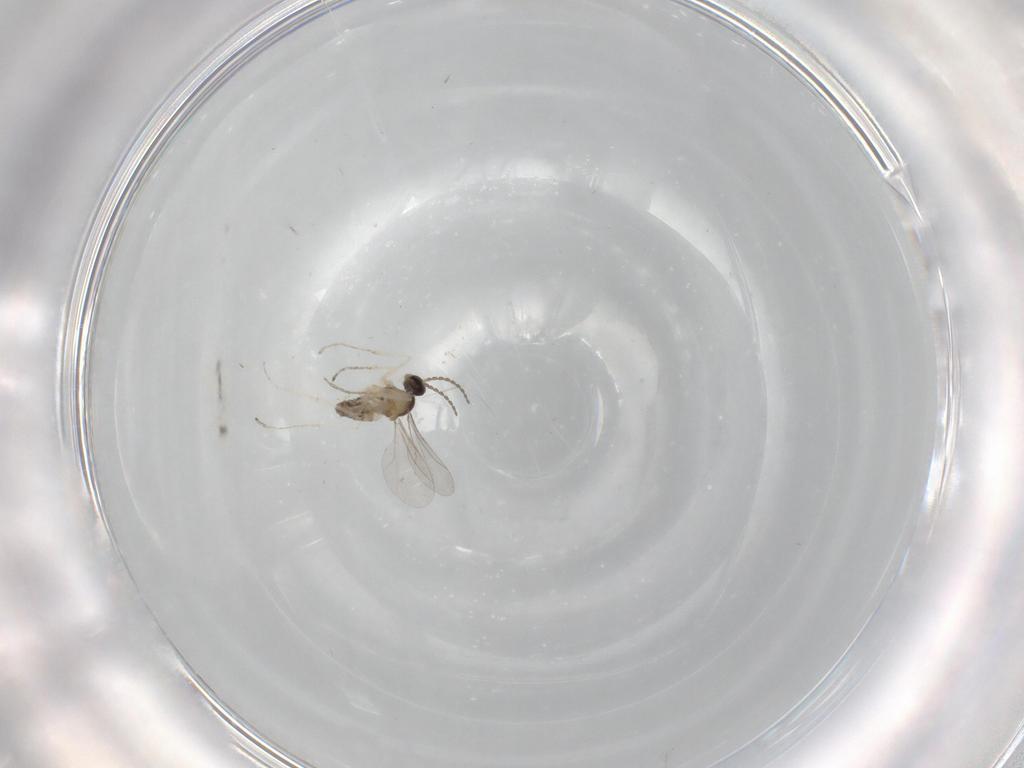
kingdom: Animalia
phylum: Arthropoda
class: Insecta
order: Diptera
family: Cecidomyiidae
